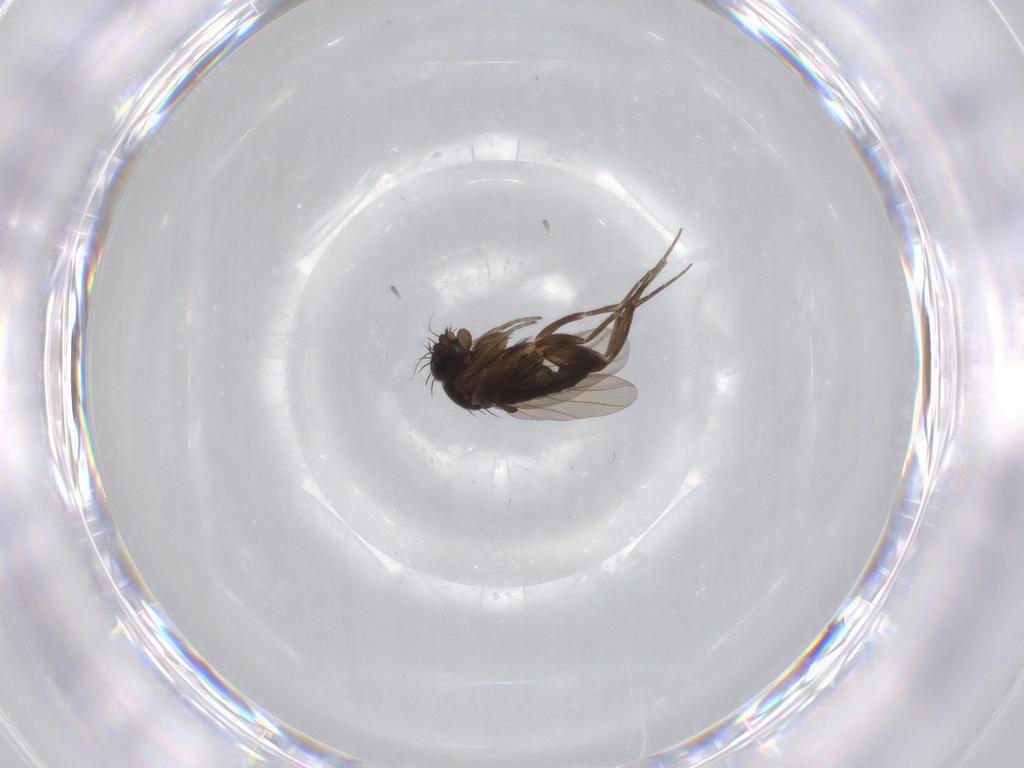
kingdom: Animalia
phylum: Arthropoda
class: Insecta
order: Diptera
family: Phoridae
